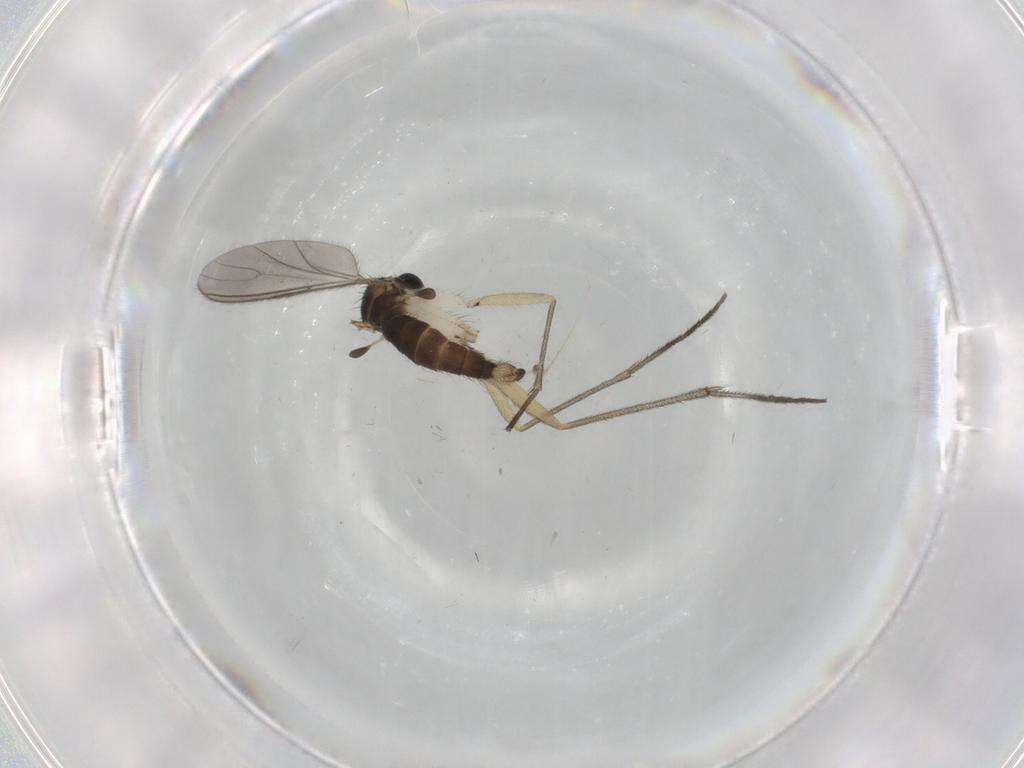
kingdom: Animalia
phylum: Arthropoda
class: Insecta
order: Diptera
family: Sciaridae
